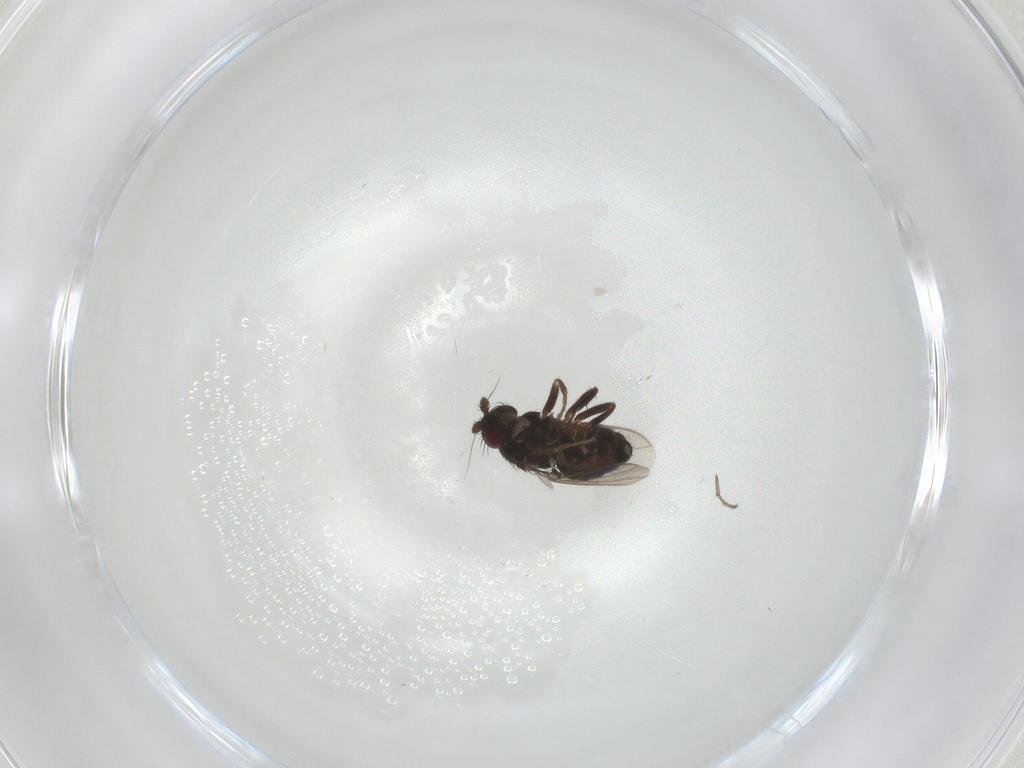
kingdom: Animalia
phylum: Arthropoda
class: Insecta
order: Diptera
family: Sphaeroceridae
